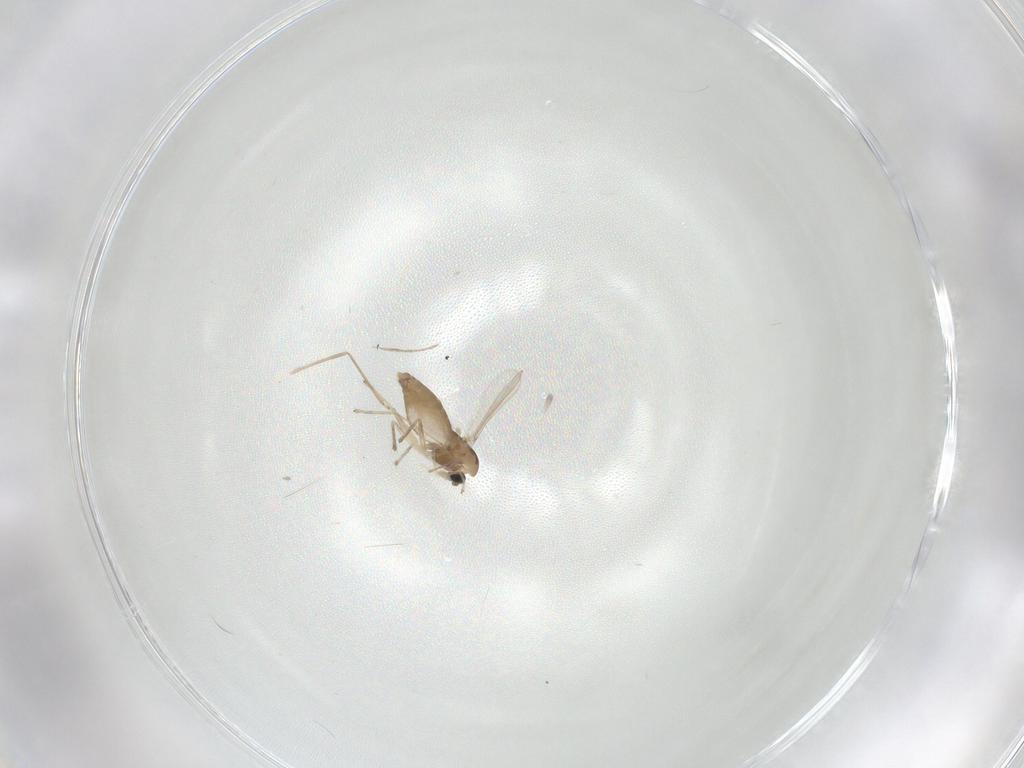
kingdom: Animalia
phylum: Arthropoda
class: Insecta
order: Diptera
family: Cecidomyiidae
